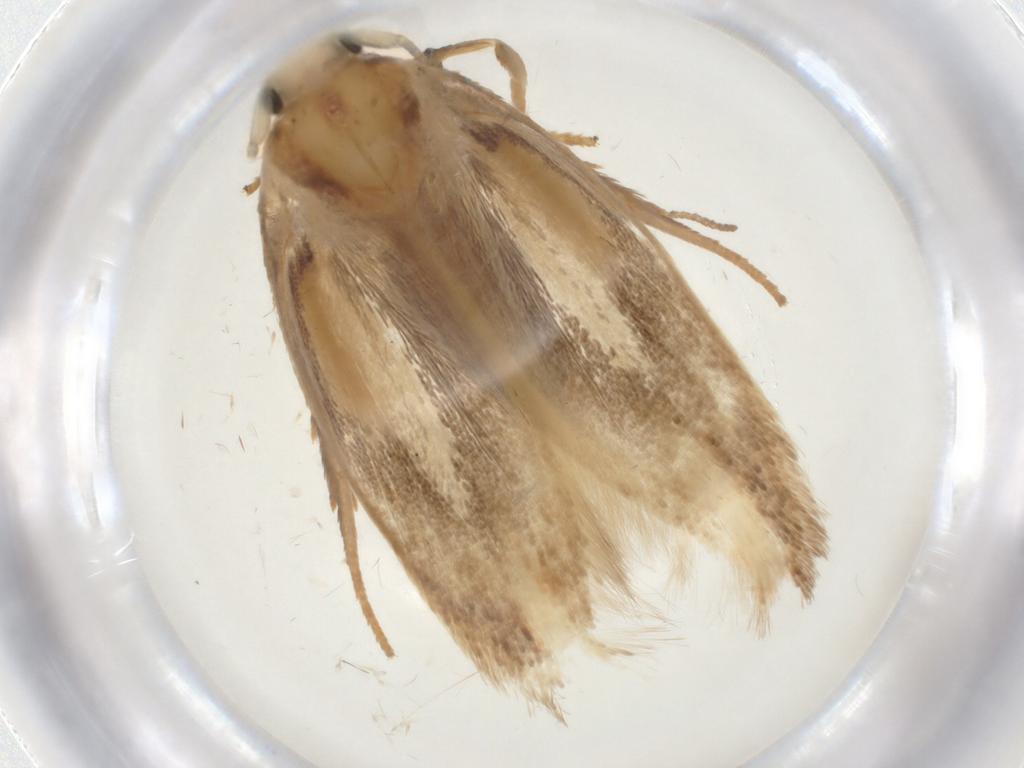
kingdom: Animalia
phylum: Arthropoda
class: Insecta
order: Lepidoptera
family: Geometridae
